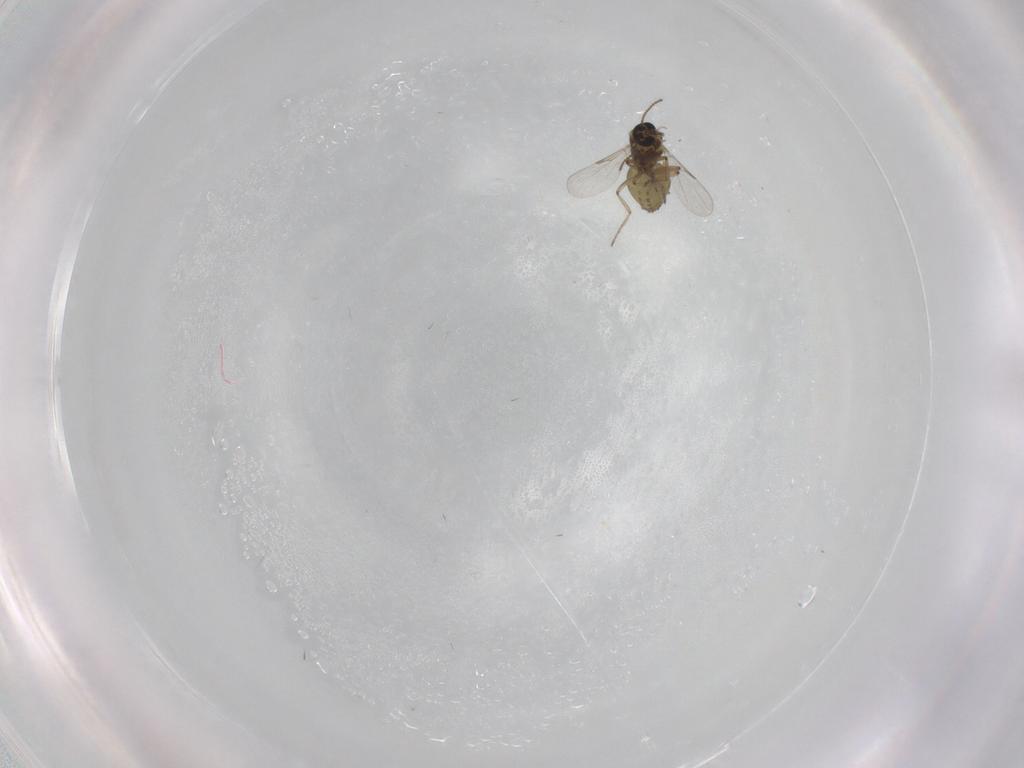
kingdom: Animalia
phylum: Arthropoda
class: Insecta
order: Diptera
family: Ceratopogonidae
